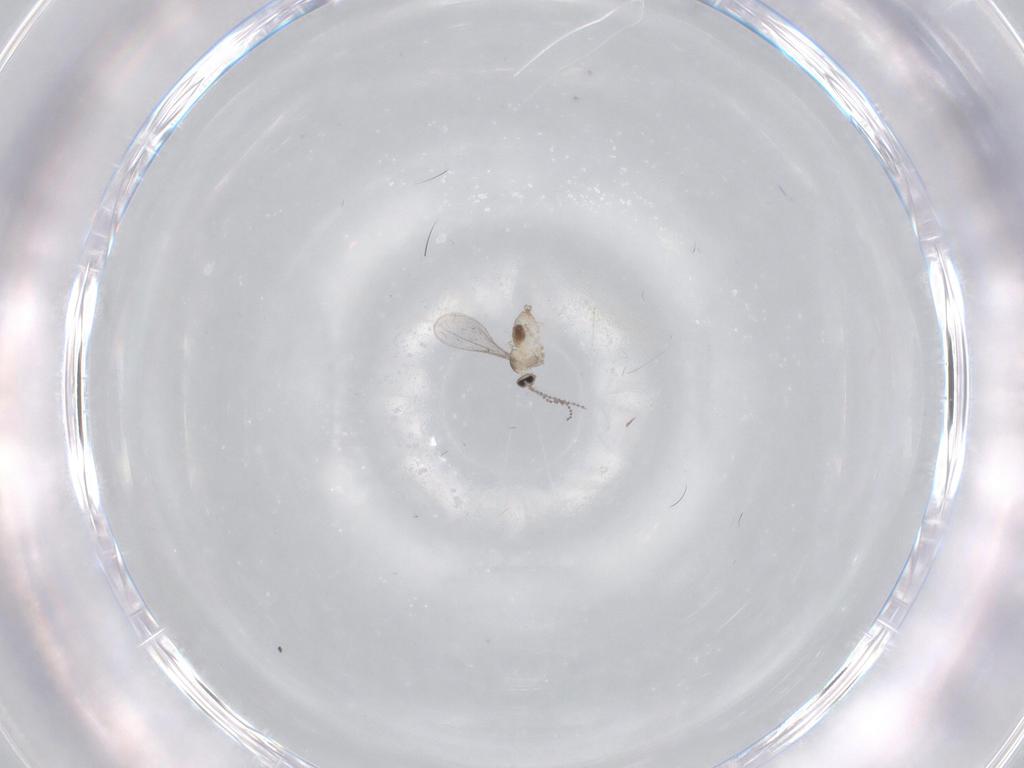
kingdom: Animalia
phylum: Arthropoda
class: Insecta
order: Diptera
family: Cecidomyiidae
